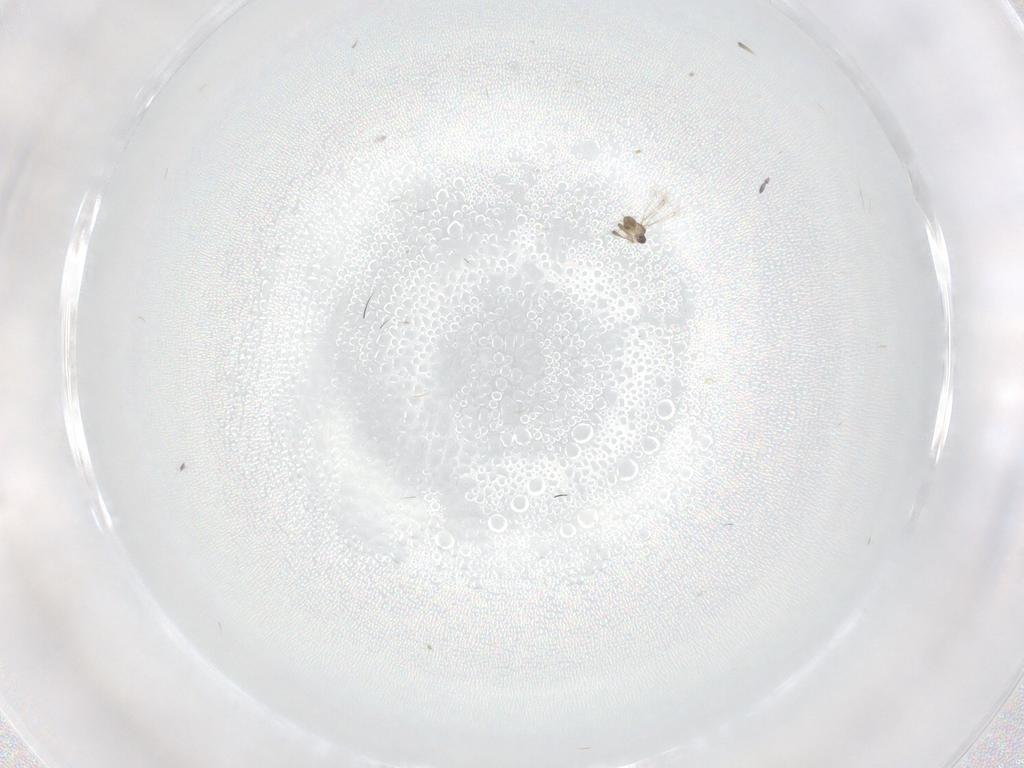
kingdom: Animalia
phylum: Arthropoda
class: Insecta
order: Hymenoptera
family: Formicidae
